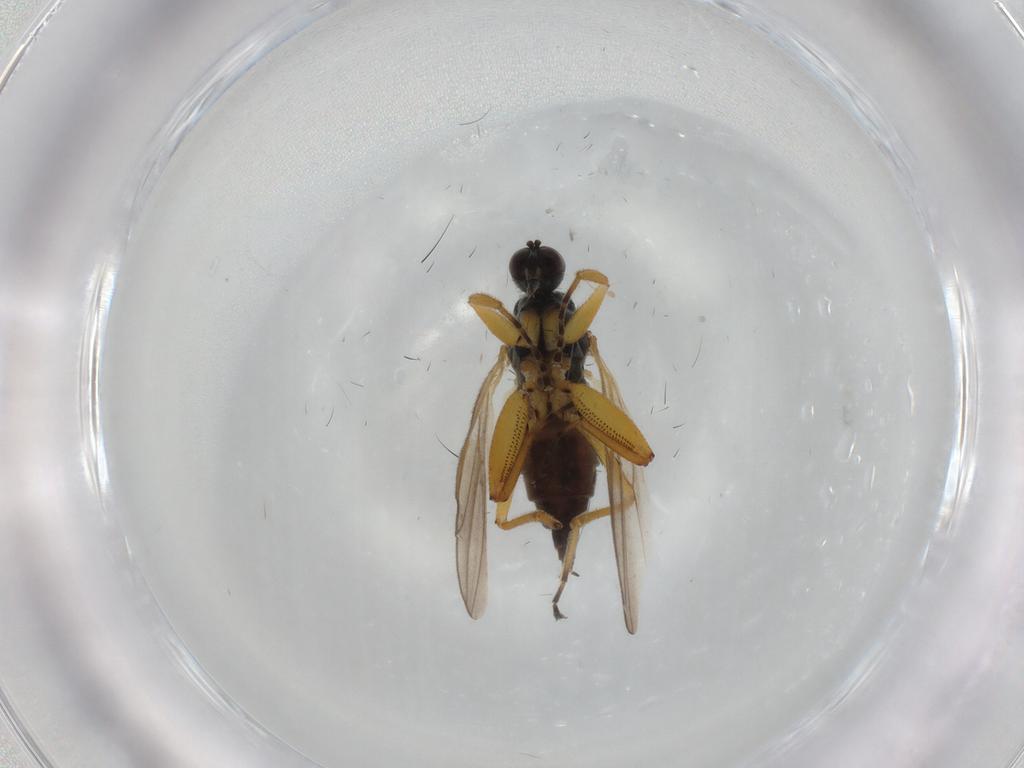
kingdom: Animalia
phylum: Arthropoda
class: Insecta
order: Diptera
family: Hybotidae
